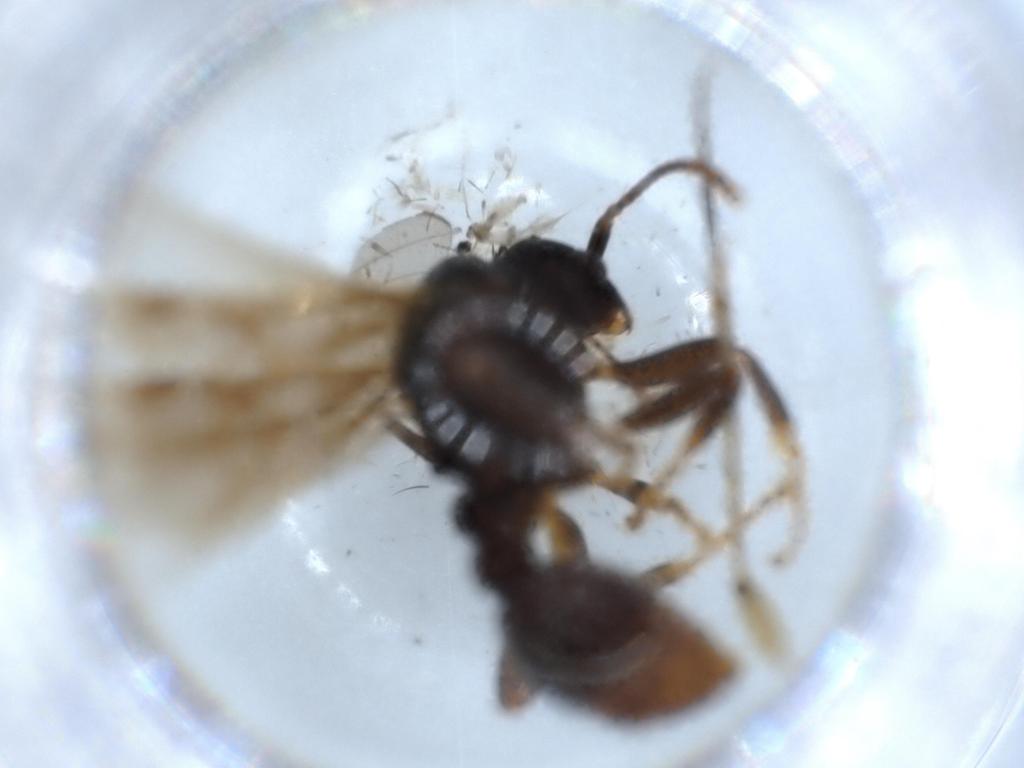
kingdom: Animalia
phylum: Arthropoda
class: Insecta
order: Hymenoptera
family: Formicidae
